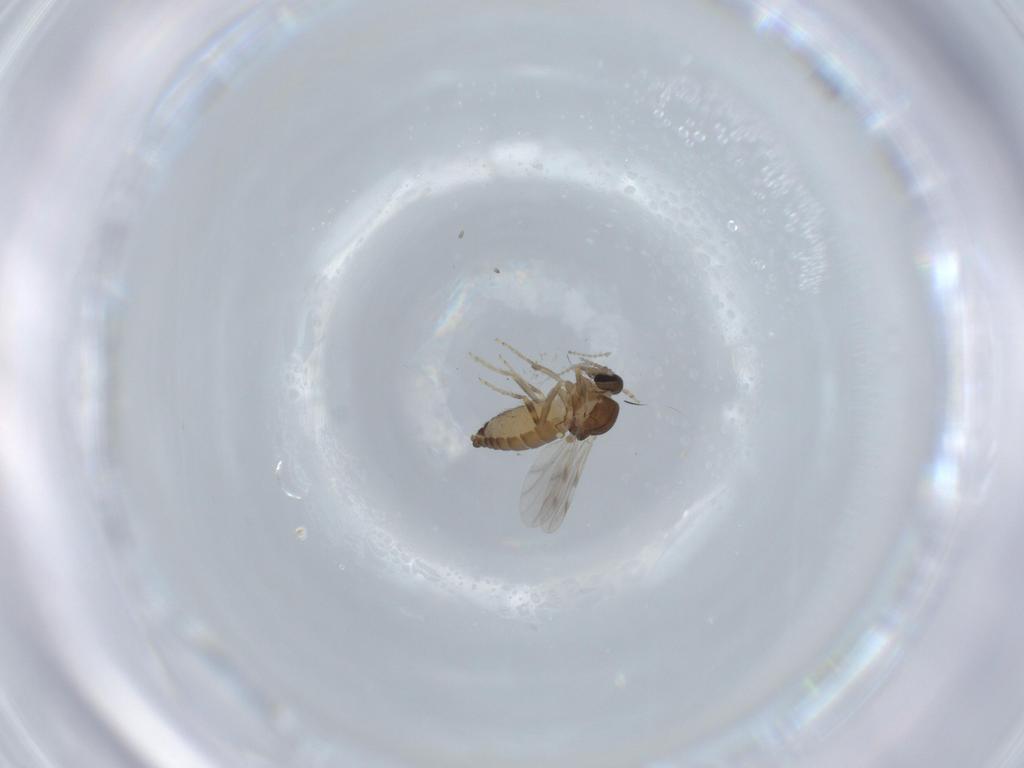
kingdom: Animalia
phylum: Arthropoda
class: Insecta
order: Diptera
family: Ceratopogonidae
